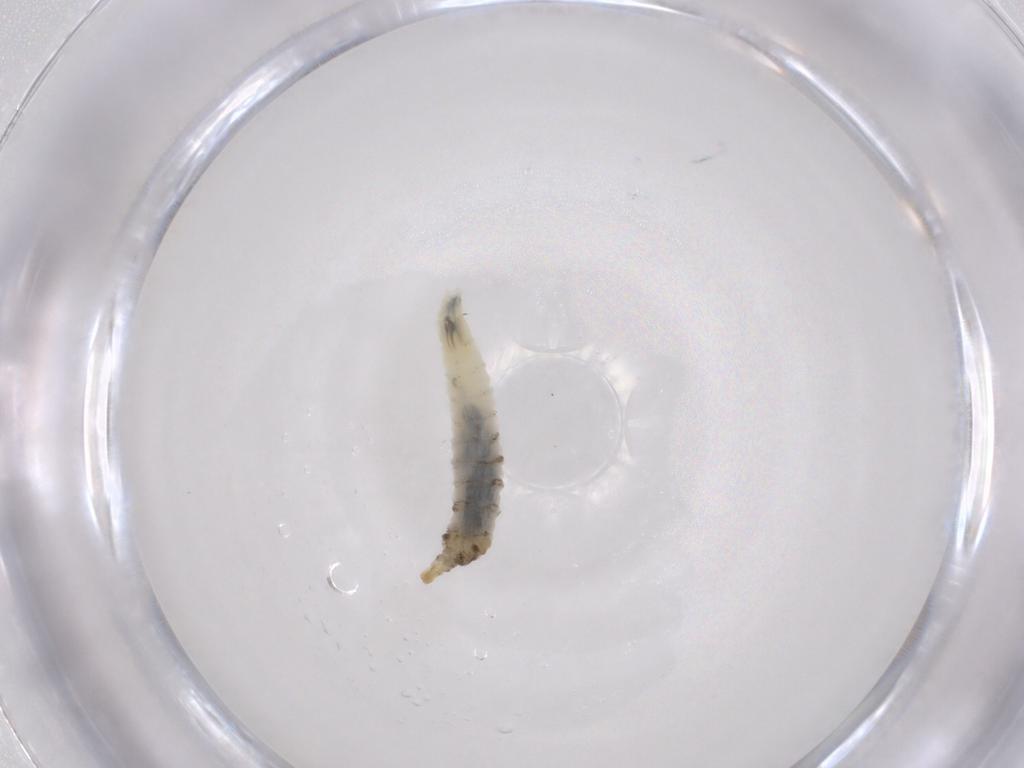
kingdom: Animalia
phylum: Arthropoda
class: Insecta
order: Diptera
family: Drosophilidae
